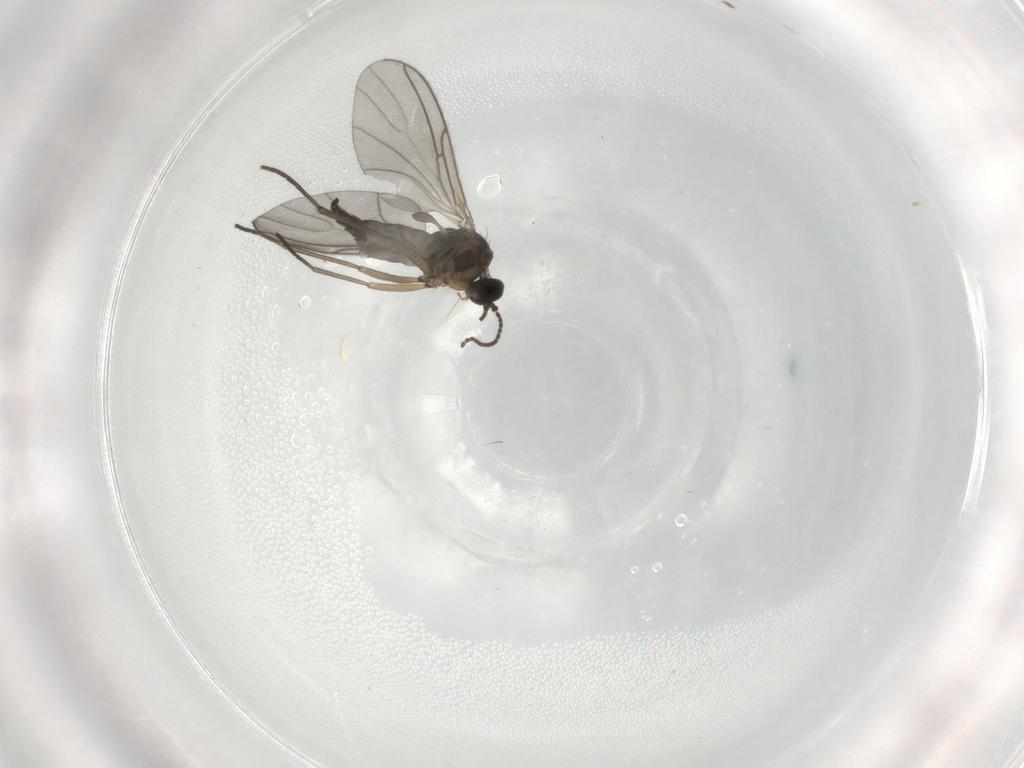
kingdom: Animalia
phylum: Arthropoda
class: Insecta
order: Diptera
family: Sciaridae
